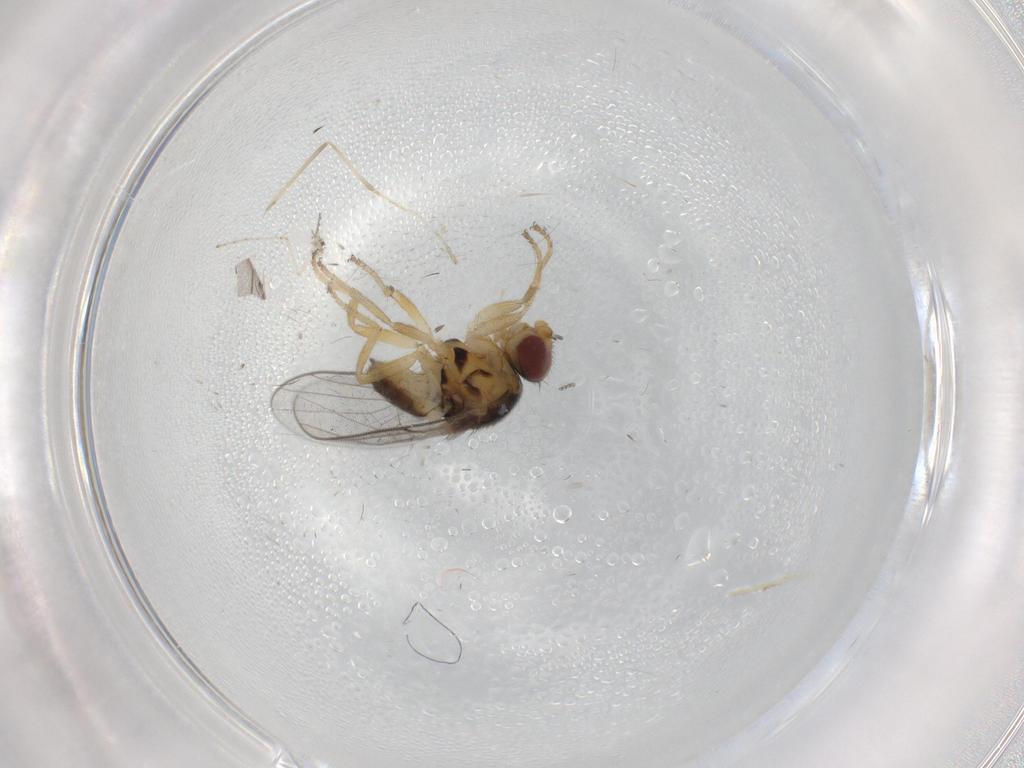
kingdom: Animalia
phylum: Arthropoda
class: Insecta
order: Diptera
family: Chloropidae
